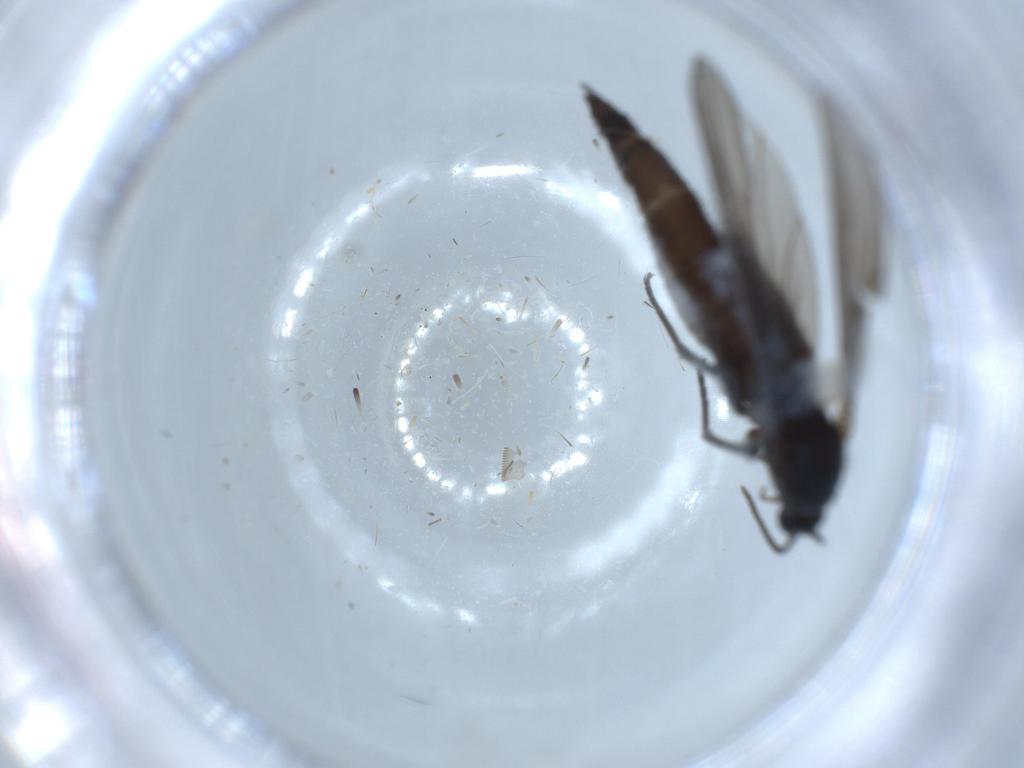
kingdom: Animalia
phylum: Arthropoda
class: Insecta
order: Diptera
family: Sciaridae
